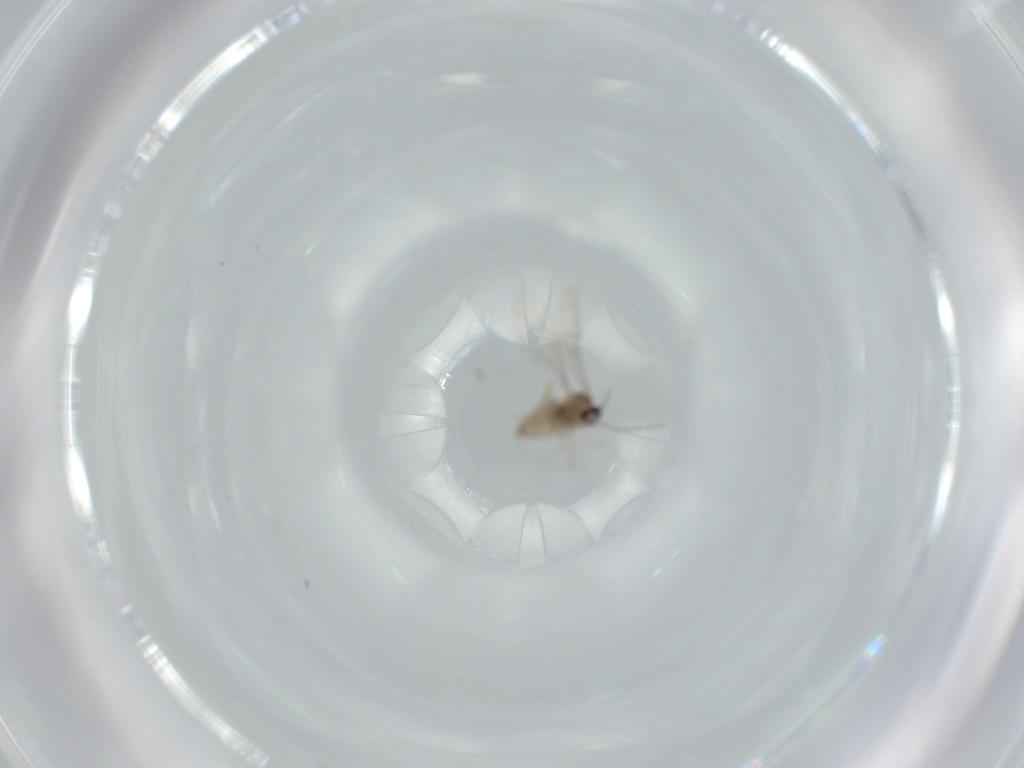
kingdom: Animalia
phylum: Arthropoda
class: Insecta
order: Diptera
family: Cecidomyiidae
